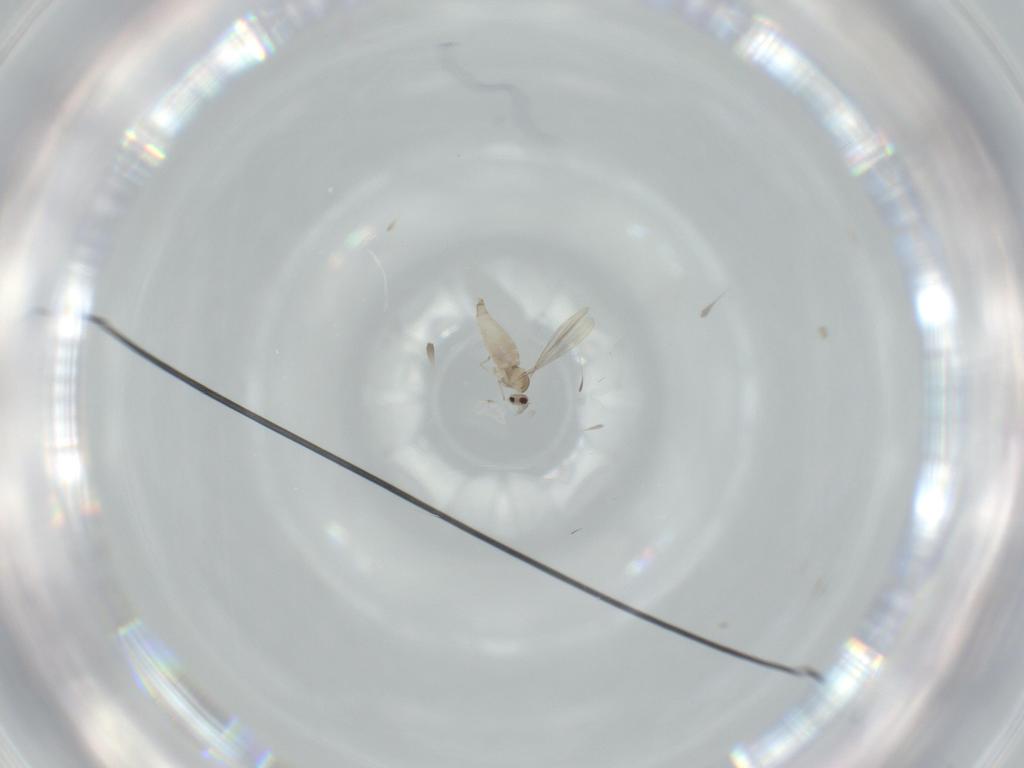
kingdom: Animalia
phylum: Arthropoda
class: Insecta
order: Diptera
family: Cecidomyiidae
